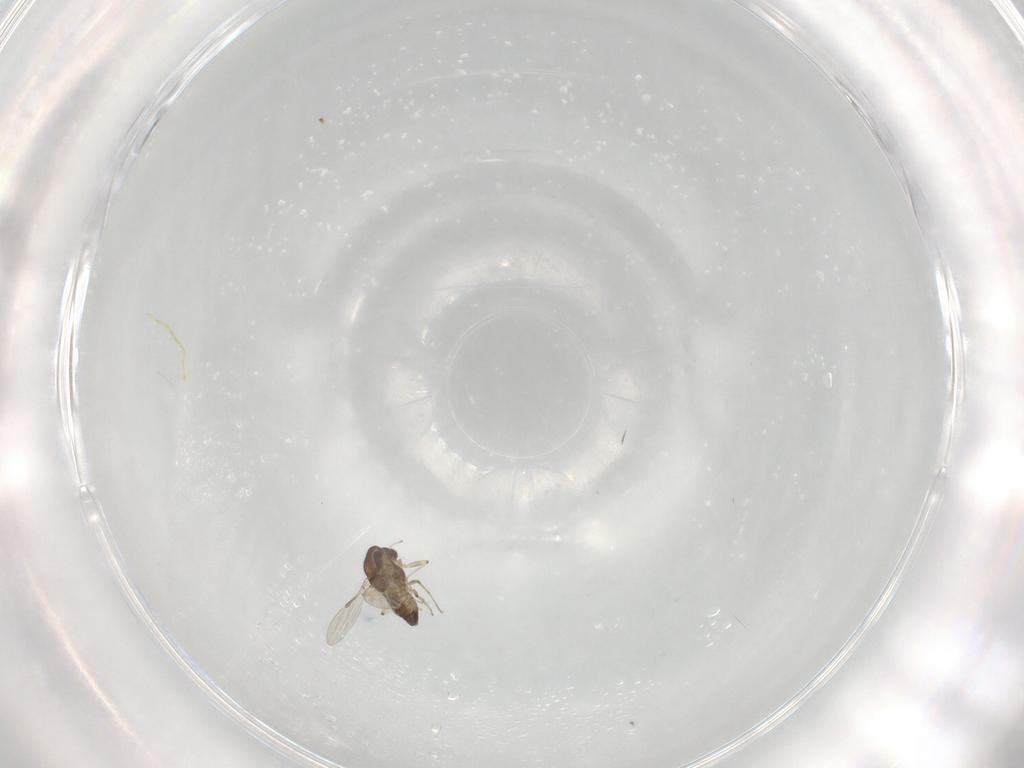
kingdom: Animalia
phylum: Arthropoda
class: Insecta
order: Diptera
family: Chironomidae
